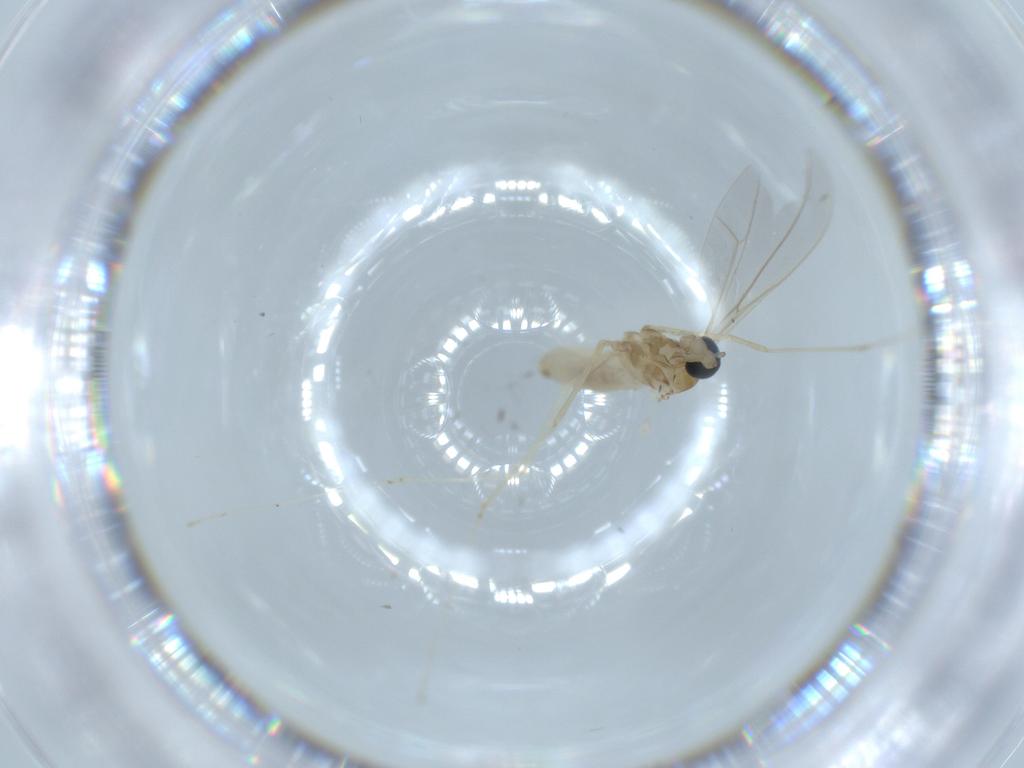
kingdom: Animalia
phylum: Arthropoda
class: Insecta
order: Diptera
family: Cecidomyiidae
